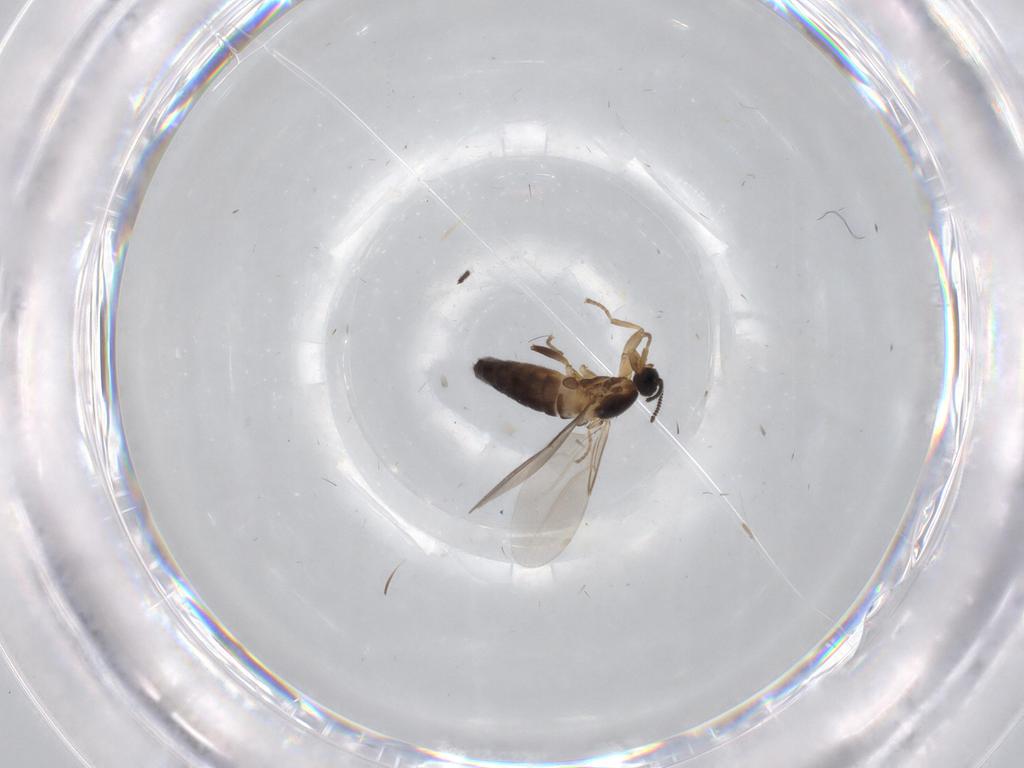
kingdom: Animalia
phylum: Arthropoda
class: Insecta
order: Diptera
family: Scatopsidae
